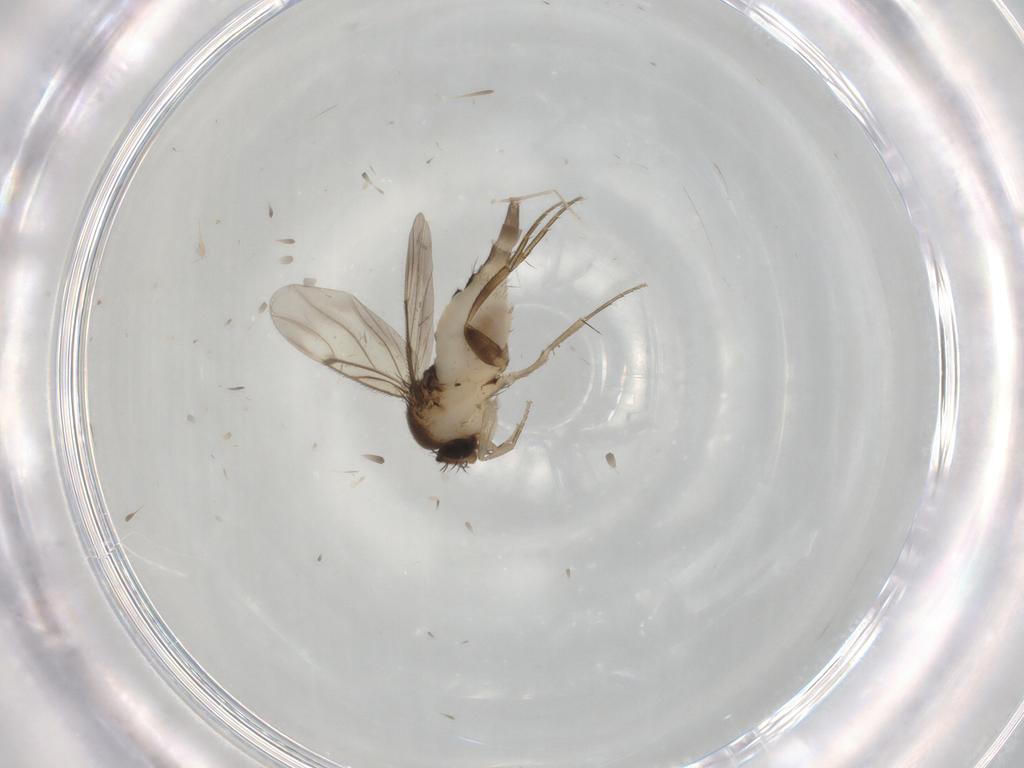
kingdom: Animalia
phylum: Arthropoda
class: Insecta
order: Diptera
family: Phoridae
